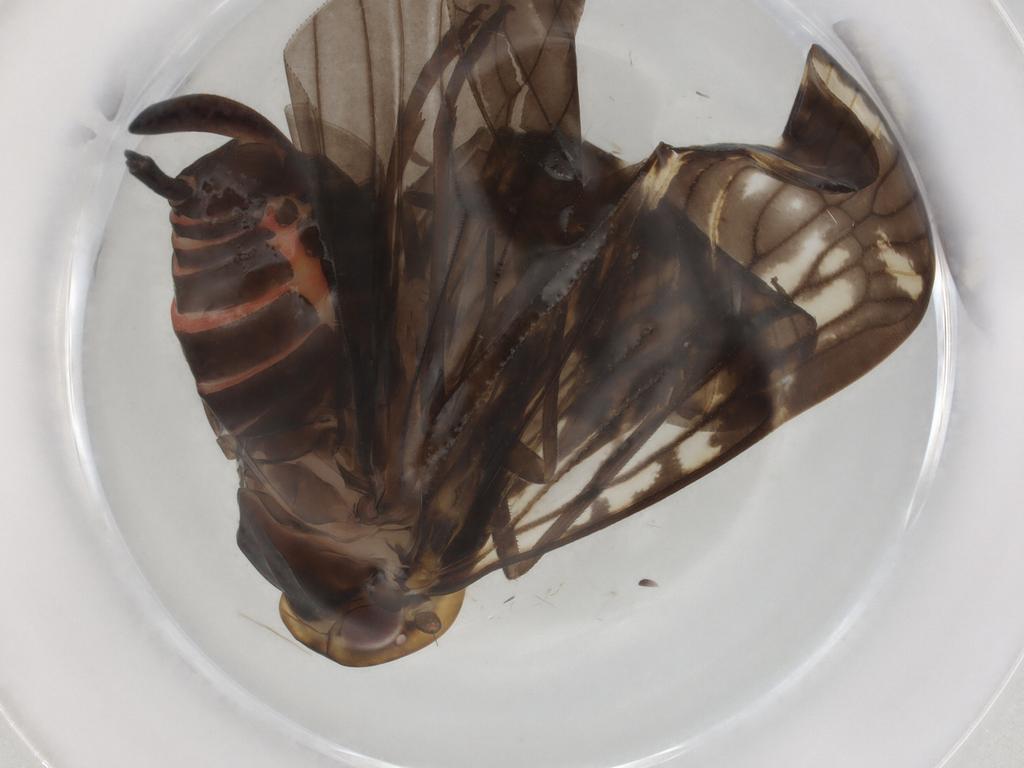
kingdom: Animalia
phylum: Arthropoda
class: Insecta
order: Hemiptera
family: Cixiidae
